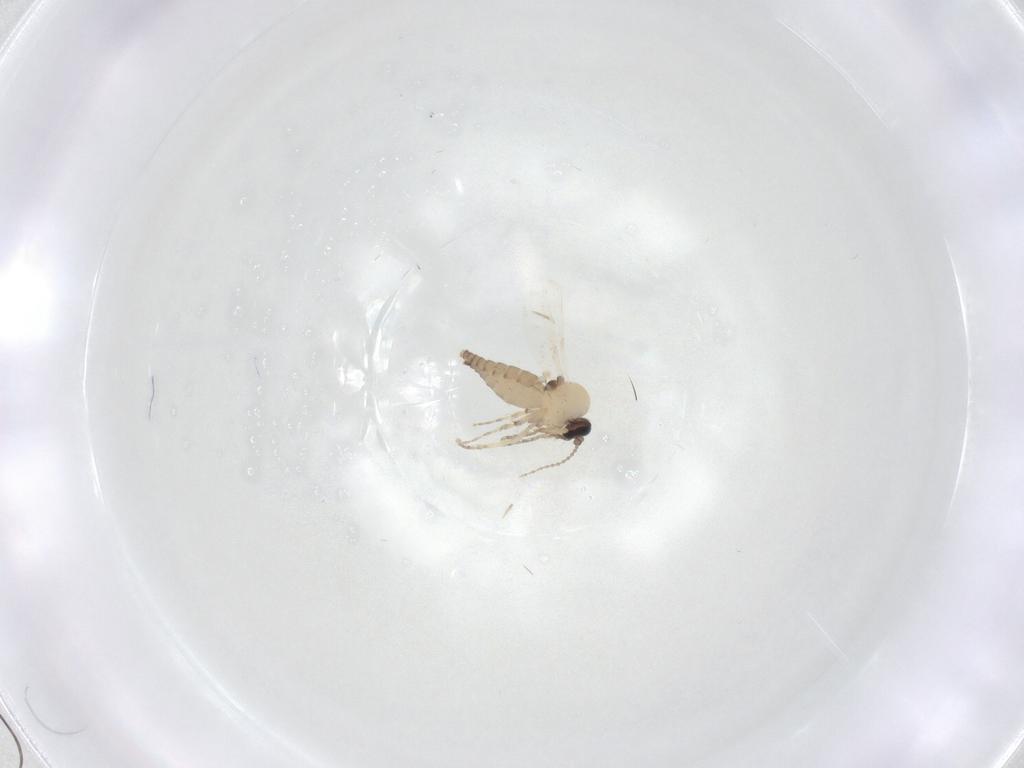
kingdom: Animalia
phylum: Arthropoda
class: Insecta
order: Diptera
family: Ceratopogonidae
